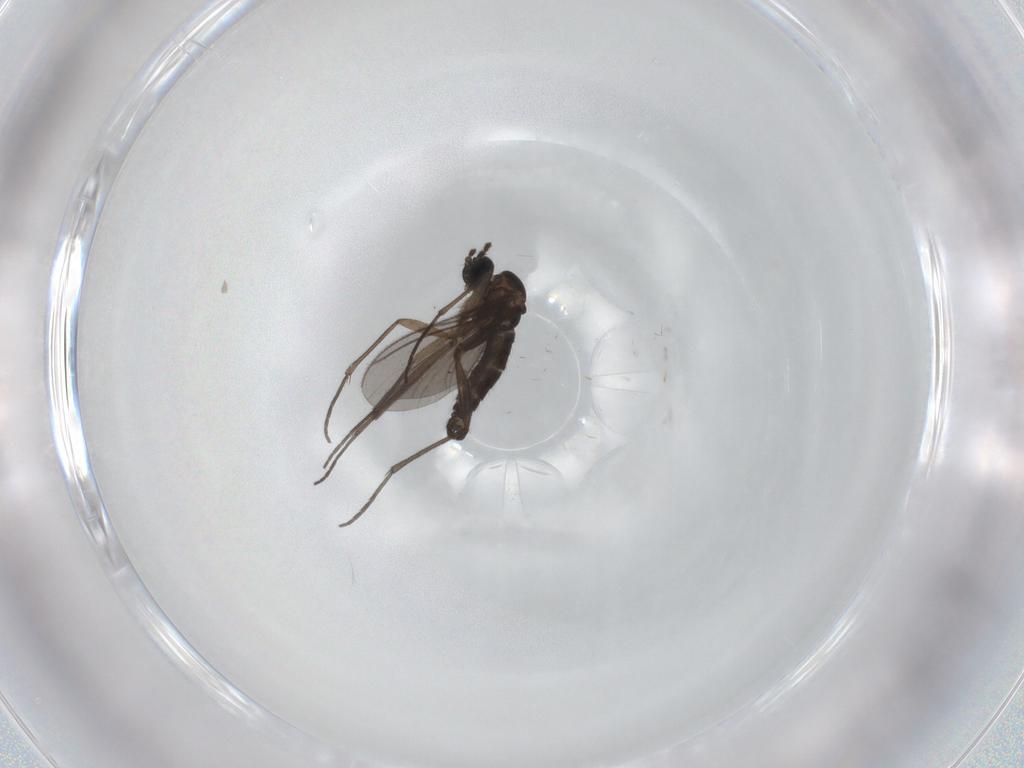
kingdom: Animalia
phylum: Arthropoda
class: Insecta
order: Diptera
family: Sciaridae
